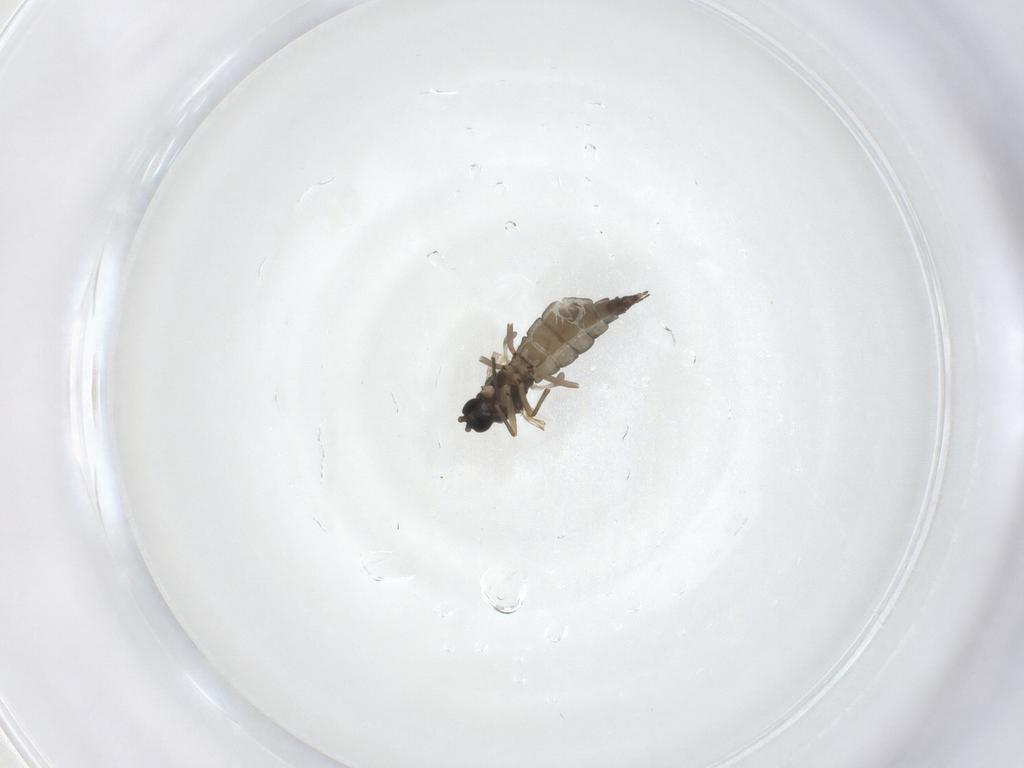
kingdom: Animalia
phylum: Arthropoda
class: Insecta
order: Diptera
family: Sciaridae
